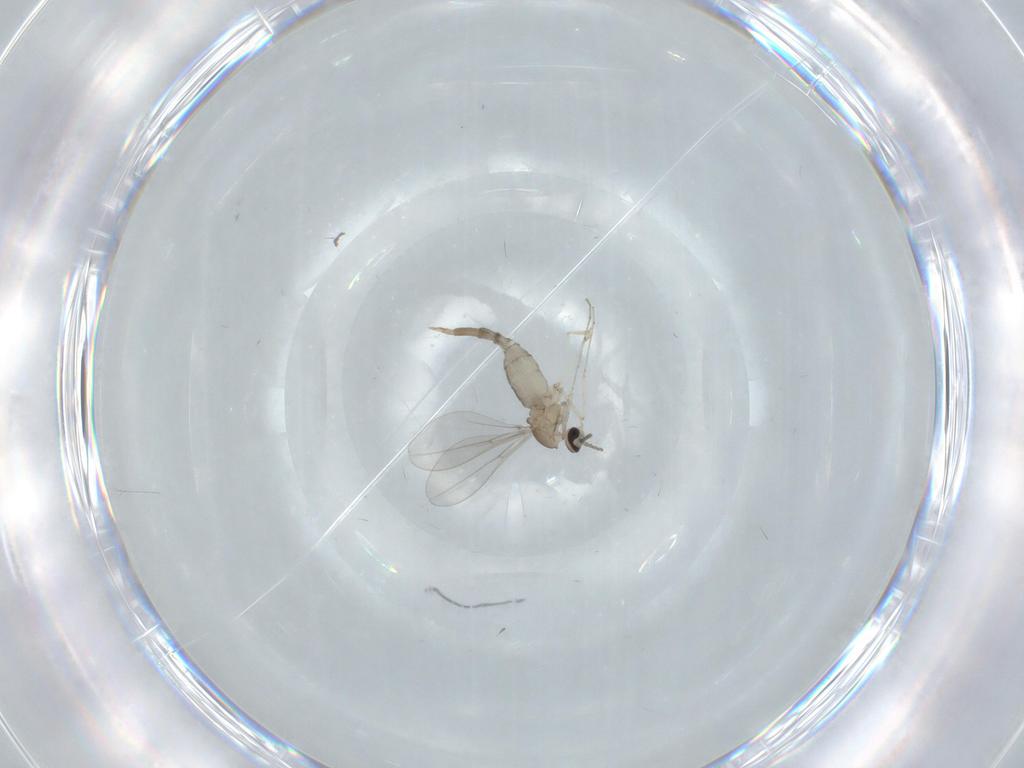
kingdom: Animalia
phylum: Arthropoda
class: Insecta
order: Diptera
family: Cecidomyiidae
